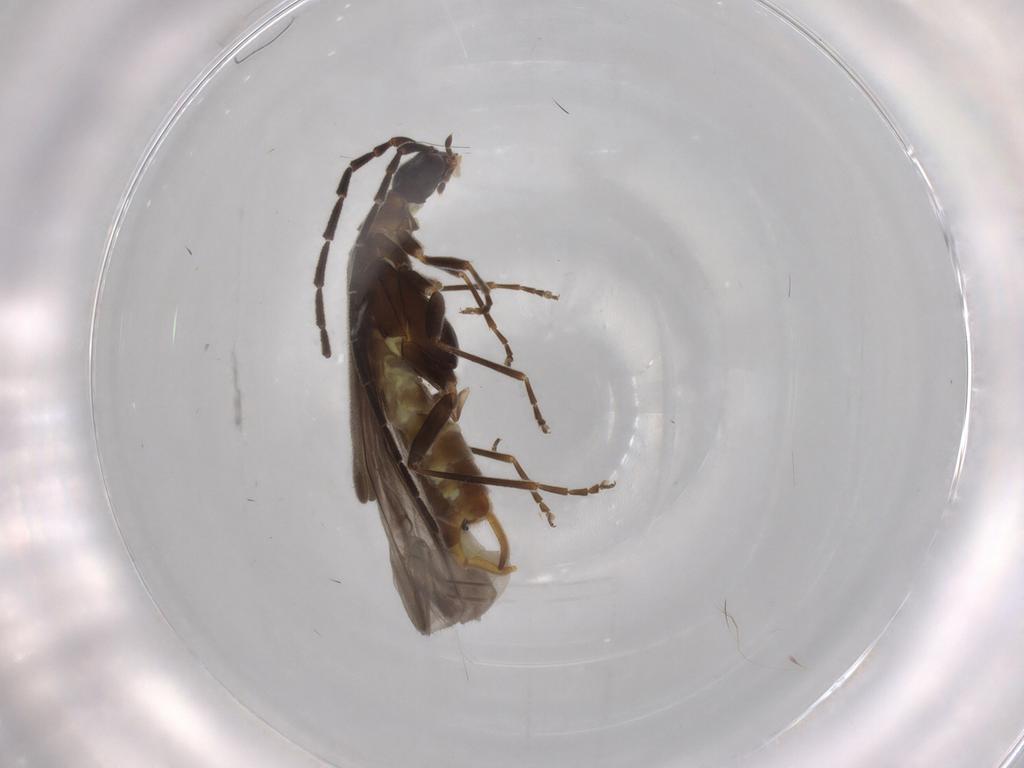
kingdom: Animalia
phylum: Arthropoda
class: Insecta
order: Coleoptera
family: Cantharidae
